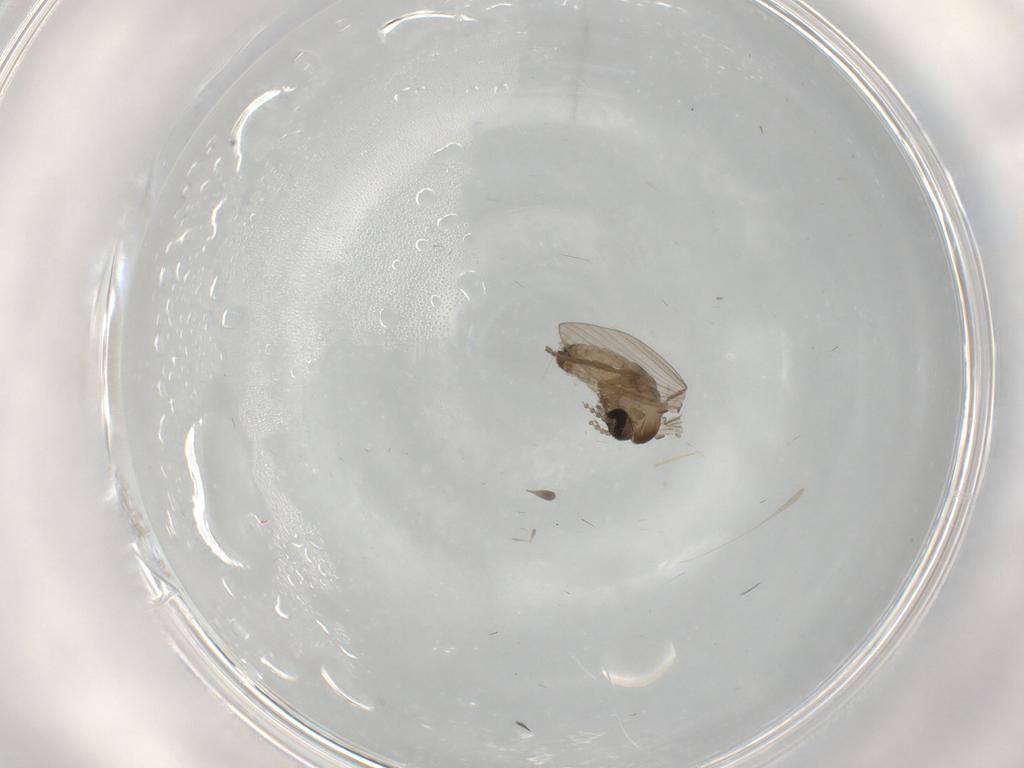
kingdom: Animalia
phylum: Arthropoda
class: Insecta
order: Diptera
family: Psychodidae
